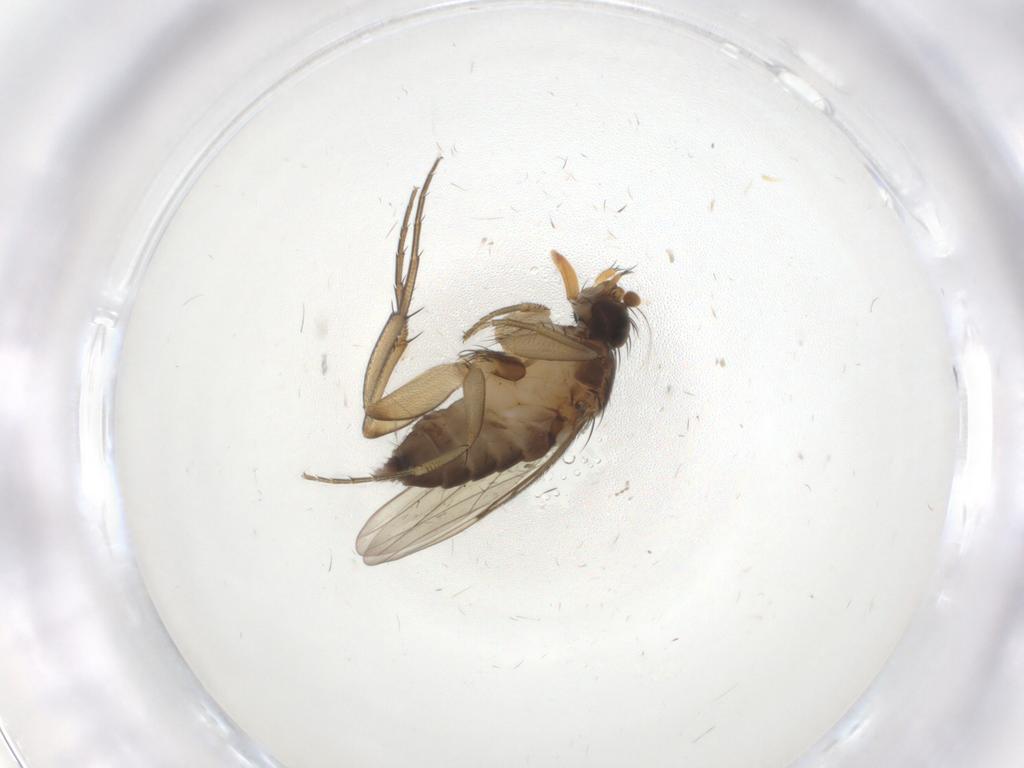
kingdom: Animalia
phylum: Arthropoda
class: Insecta
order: Diptera
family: Phoridae
